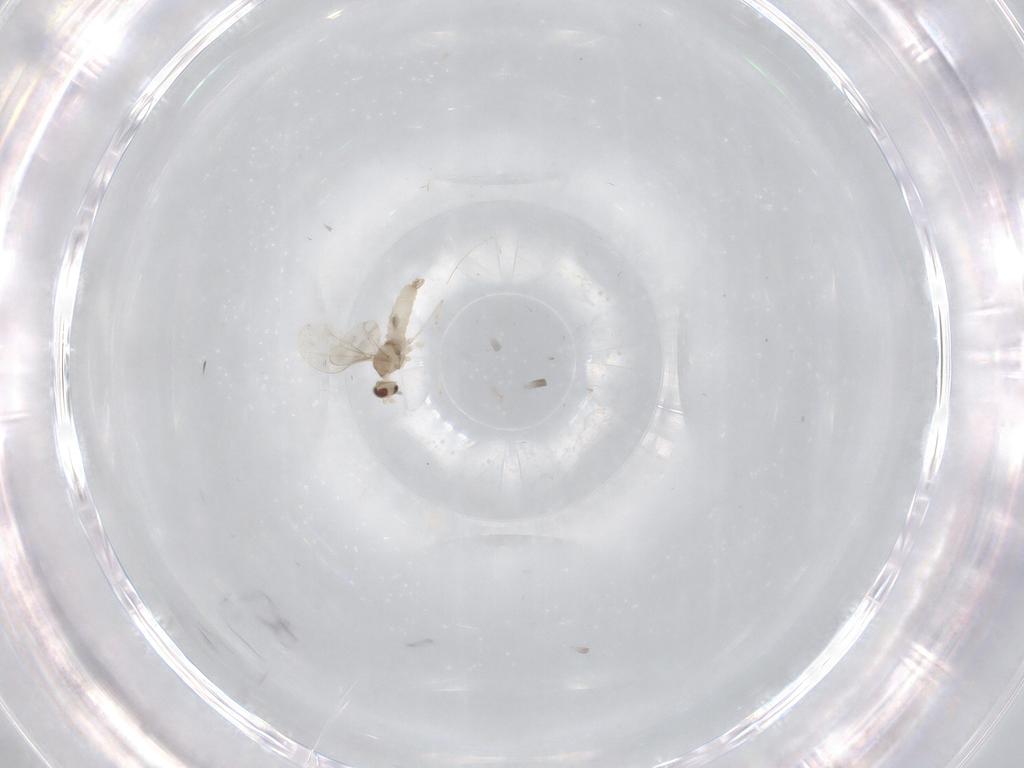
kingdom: Animalia
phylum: Arthropoda
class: Insecta
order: Diptera
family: Cecidomyiidae
